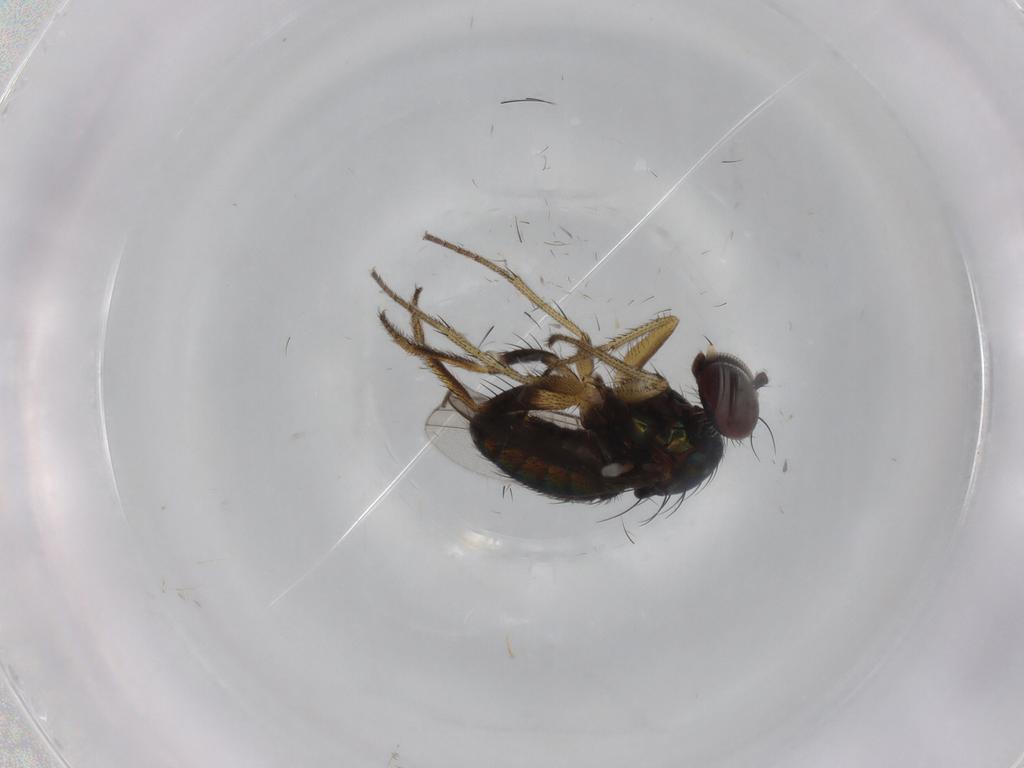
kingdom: Animalia
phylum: Arthropoda
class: Insecta
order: Diptera
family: Dolichopodidae
